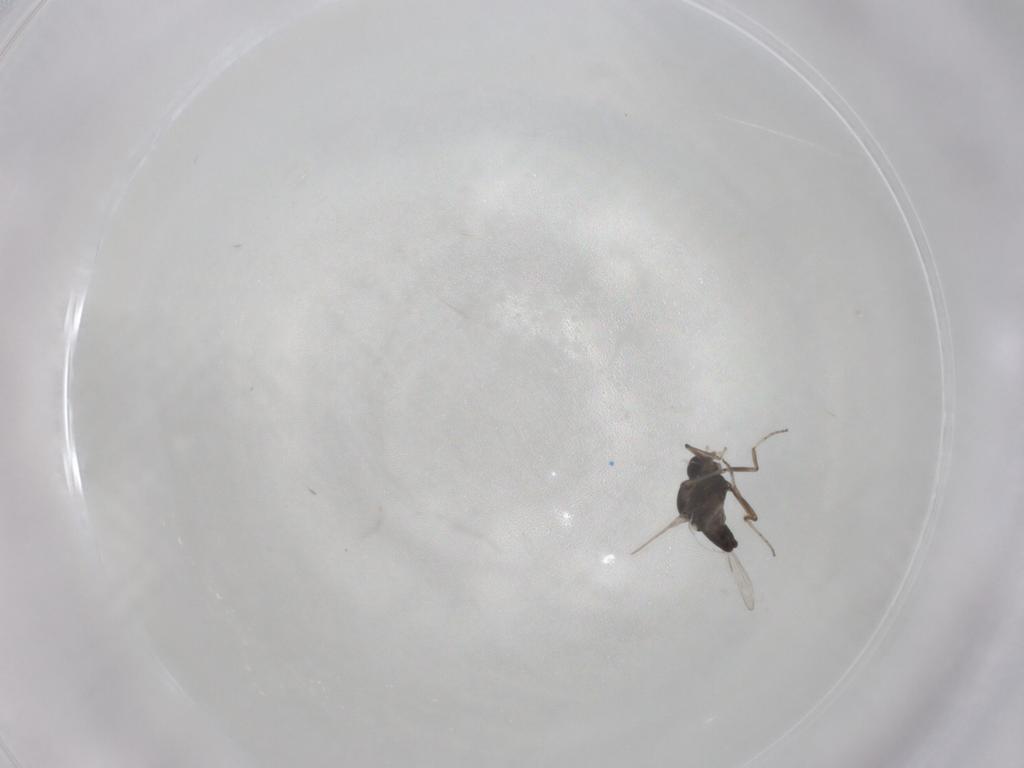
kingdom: Animalia
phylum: Arthropoda
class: Insecta
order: Diptera
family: Ceratopogonidae
